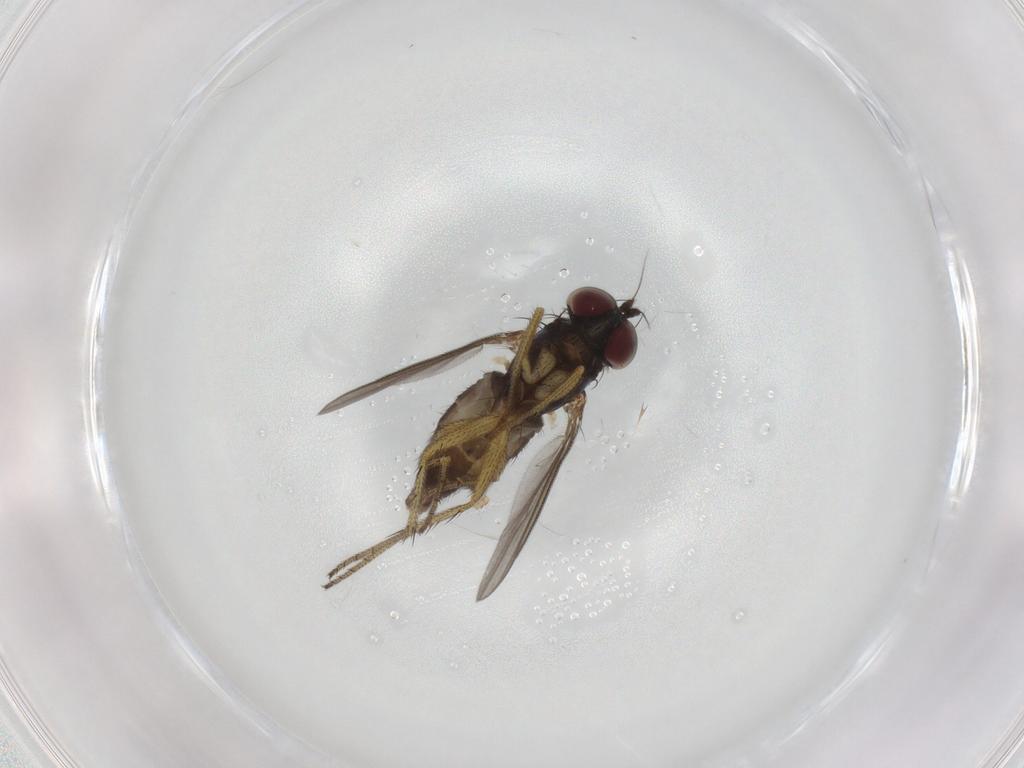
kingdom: Animalia
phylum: Arthropoda
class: Insecta
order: Diptera
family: Dolichopodidae
